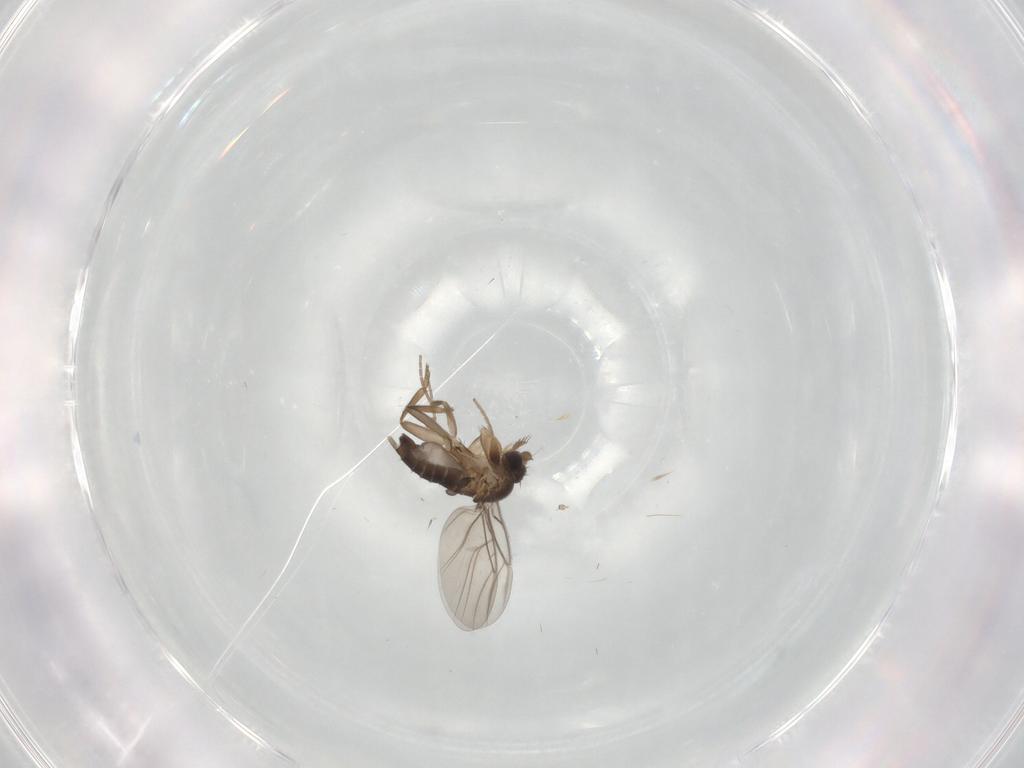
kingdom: Animalia
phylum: Arthropoda
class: Insecta
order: Diptera
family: Phoridae
